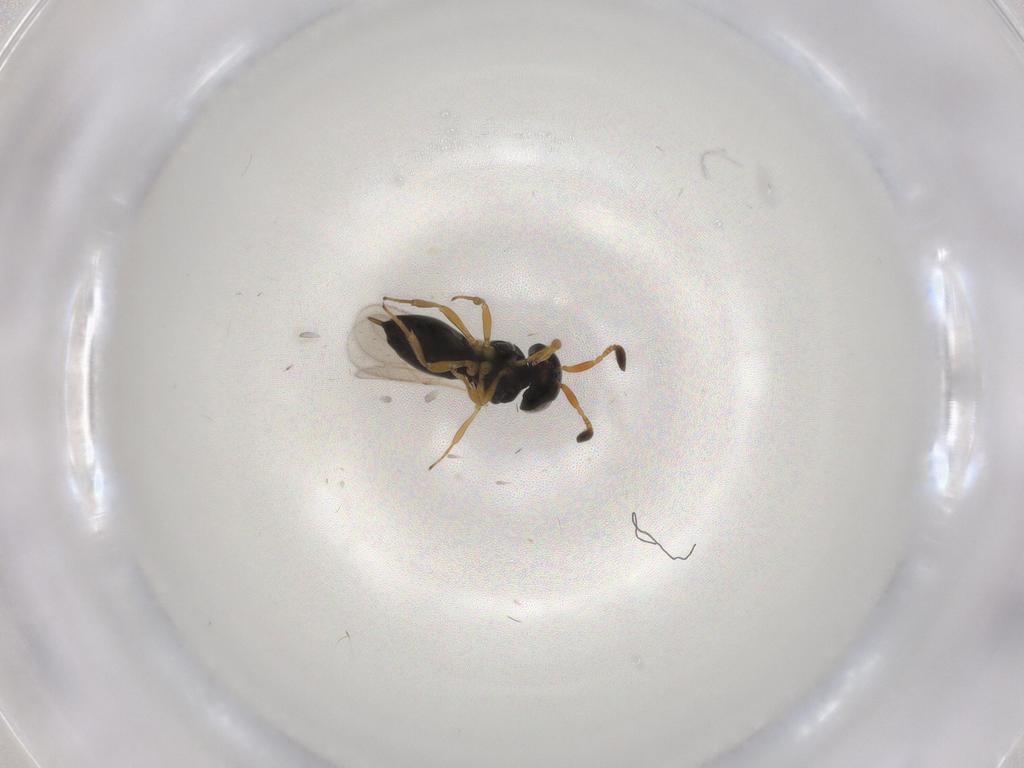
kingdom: Animalia
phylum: Arthropoda
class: Insecta
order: Hymenoptera
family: Scelionidae
